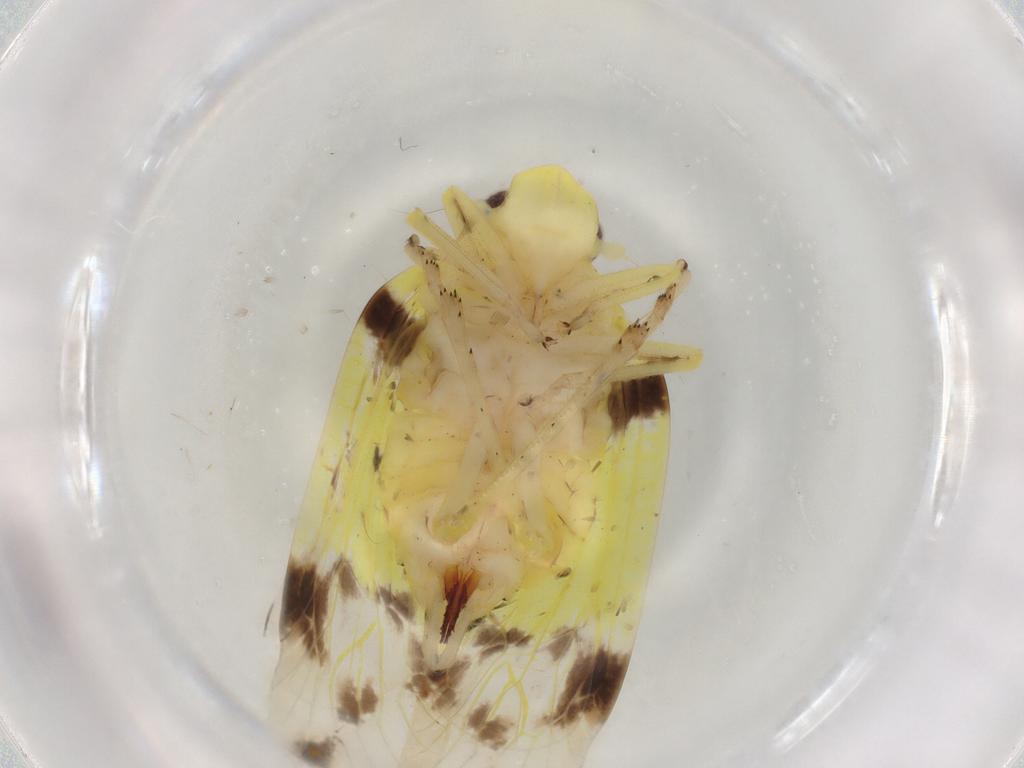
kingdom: Animalia
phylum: Arthropoda
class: Insecta
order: Hemiptera
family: Tropiduchidae
